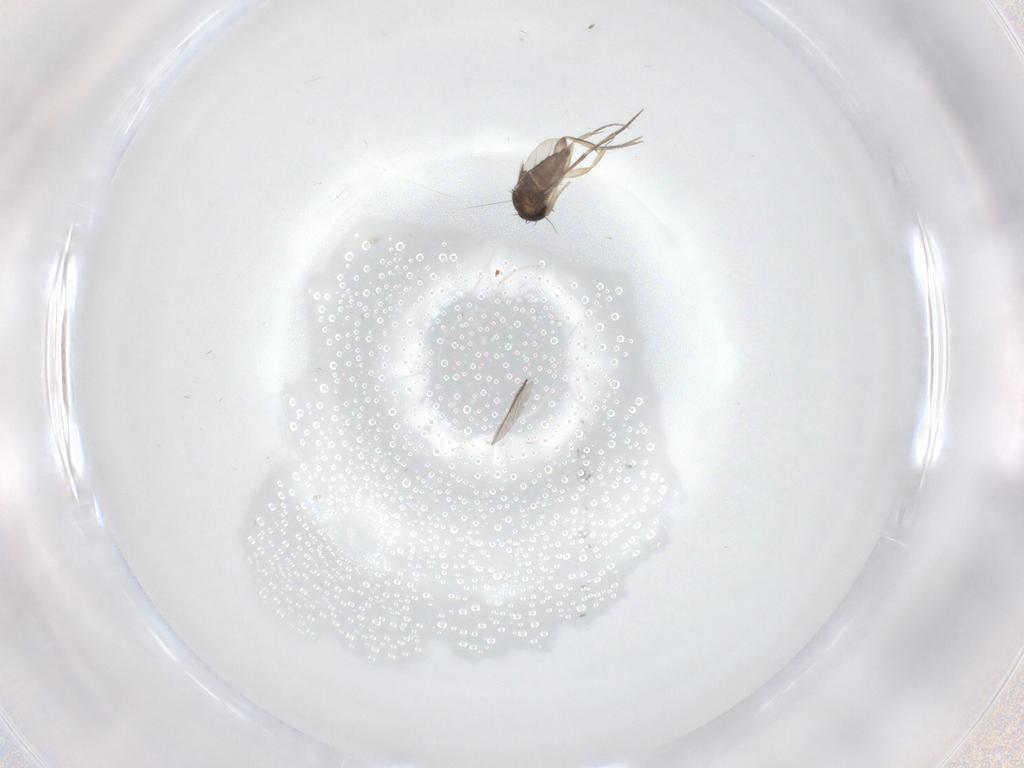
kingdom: Animalia
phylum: Arthropoda
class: Insecta
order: Diptera
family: Phoridae
